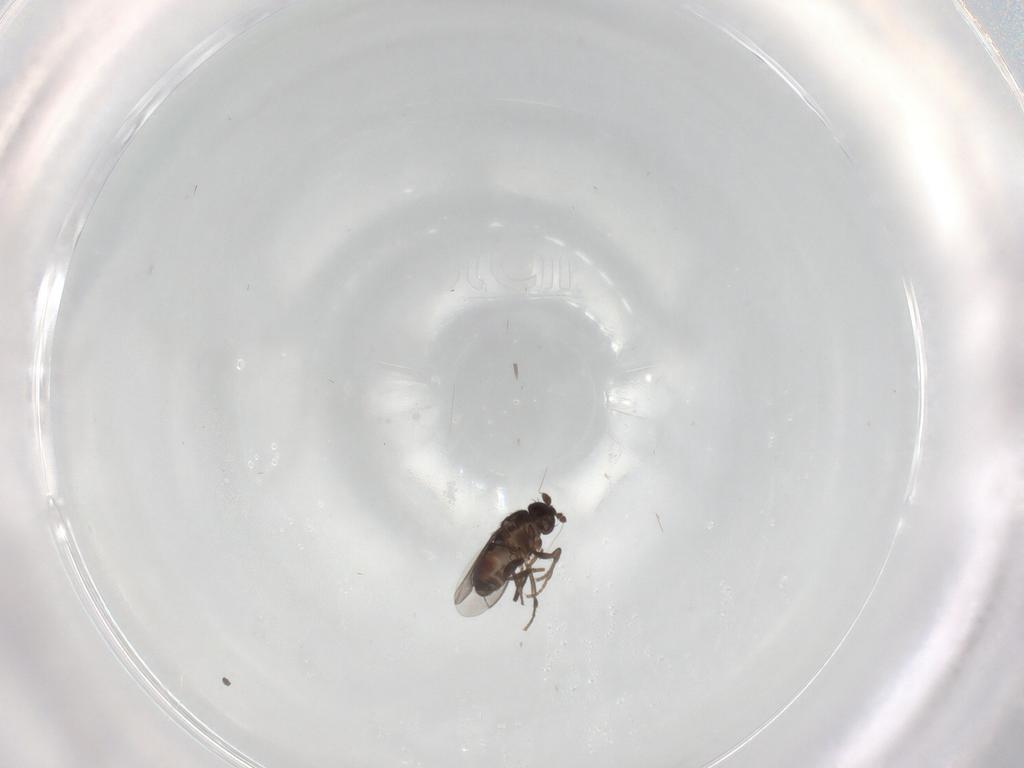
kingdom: Animalia
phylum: Arthropoda
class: Insecta
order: Diptera
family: Sphaeroceridae
